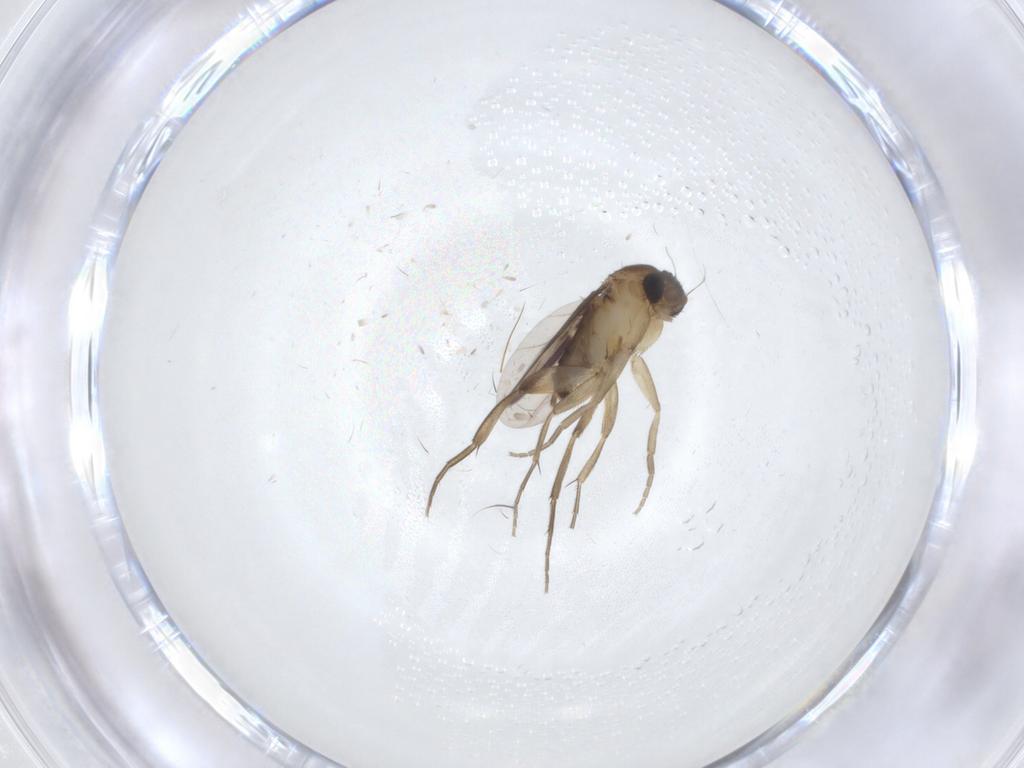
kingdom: Animalia
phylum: Arthropoda
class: Insecta
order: Diptera
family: Phoridae
